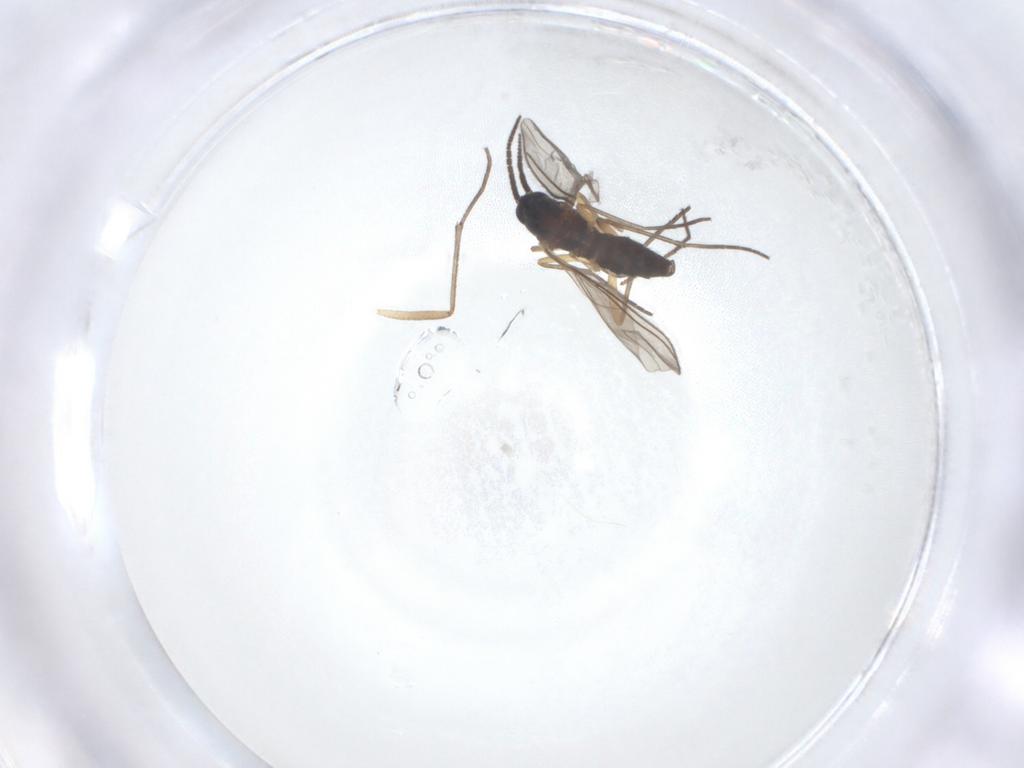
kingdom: Animalia
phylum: Arthropoda
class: Insecta
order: Diptera
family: Sciaridae
